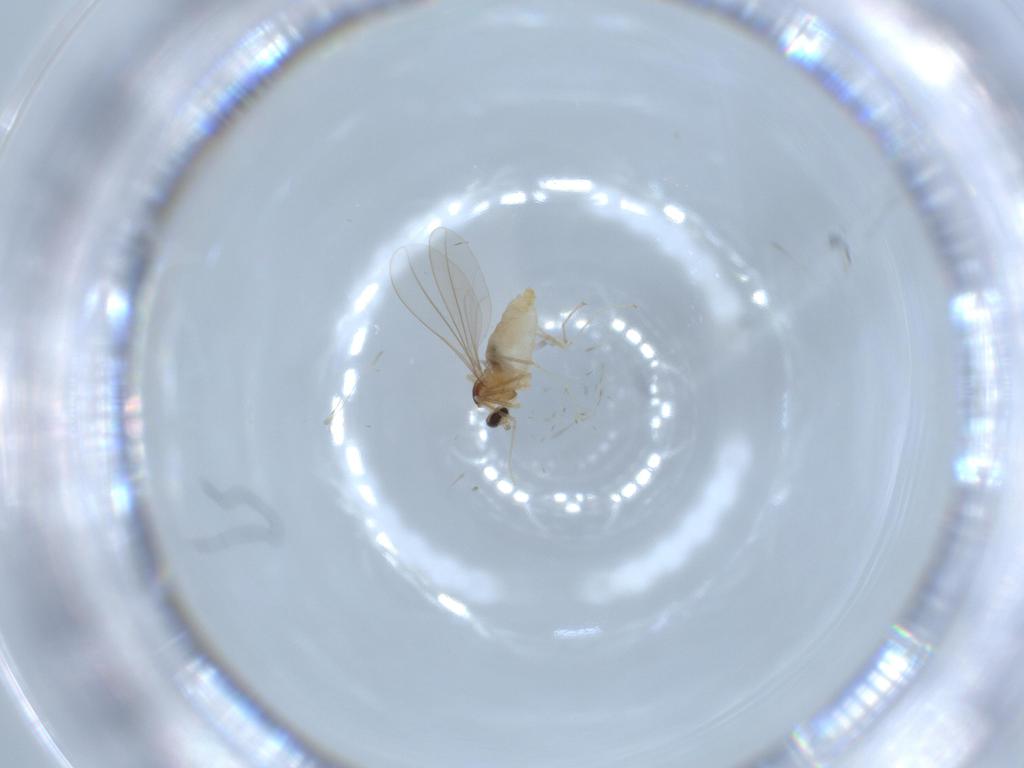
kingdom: Animalia
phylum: Arthropoda
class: Insecta
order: Diptera
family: Cecidomyiidae
